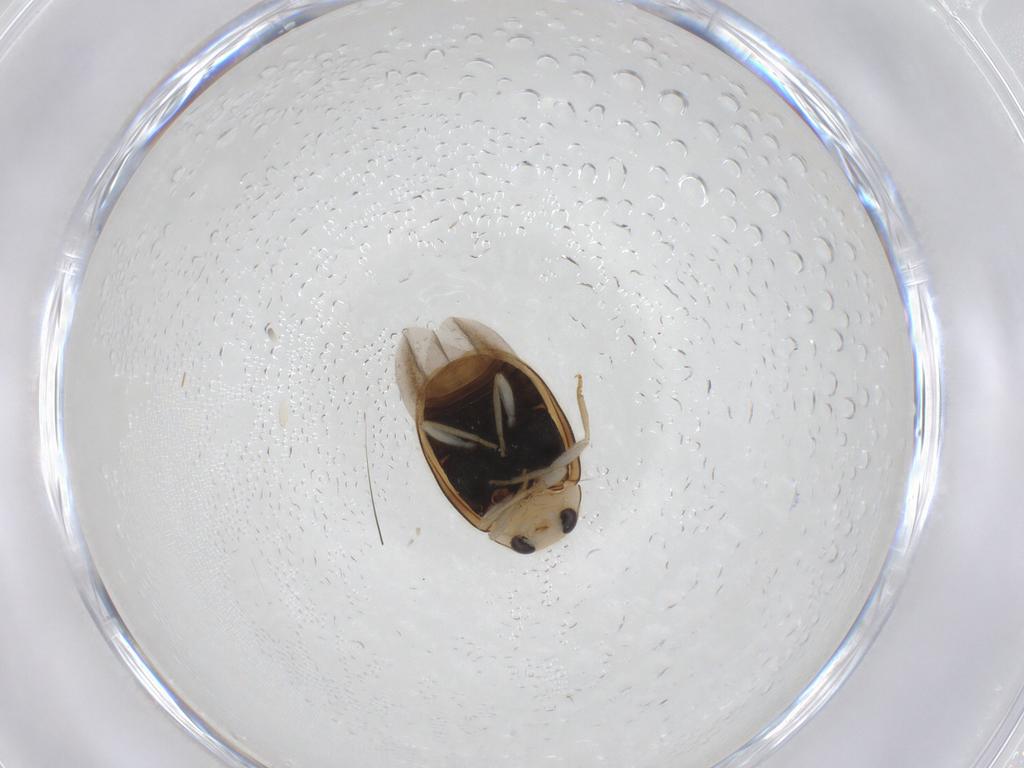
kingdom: Animalia
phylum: Arthropoda
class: Insecta
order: Coleoptera
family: Coccinellidae
